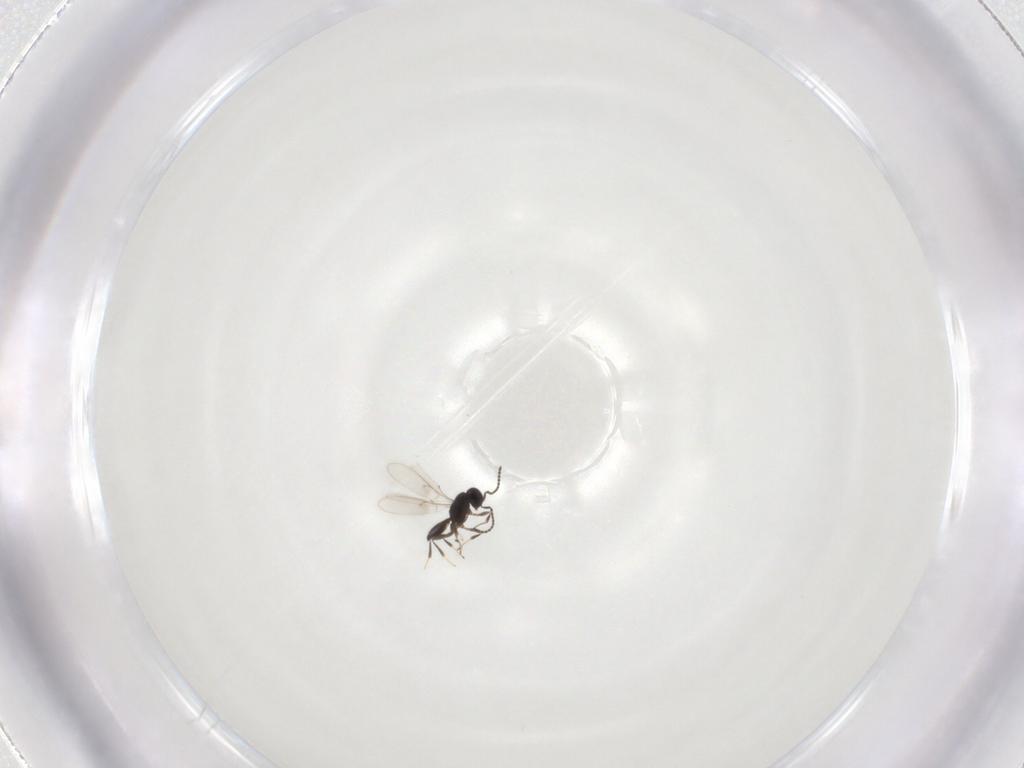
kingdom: Animalia
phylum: Arthropoda
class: Insecta
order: Hymenoptera
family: Scelionidae
